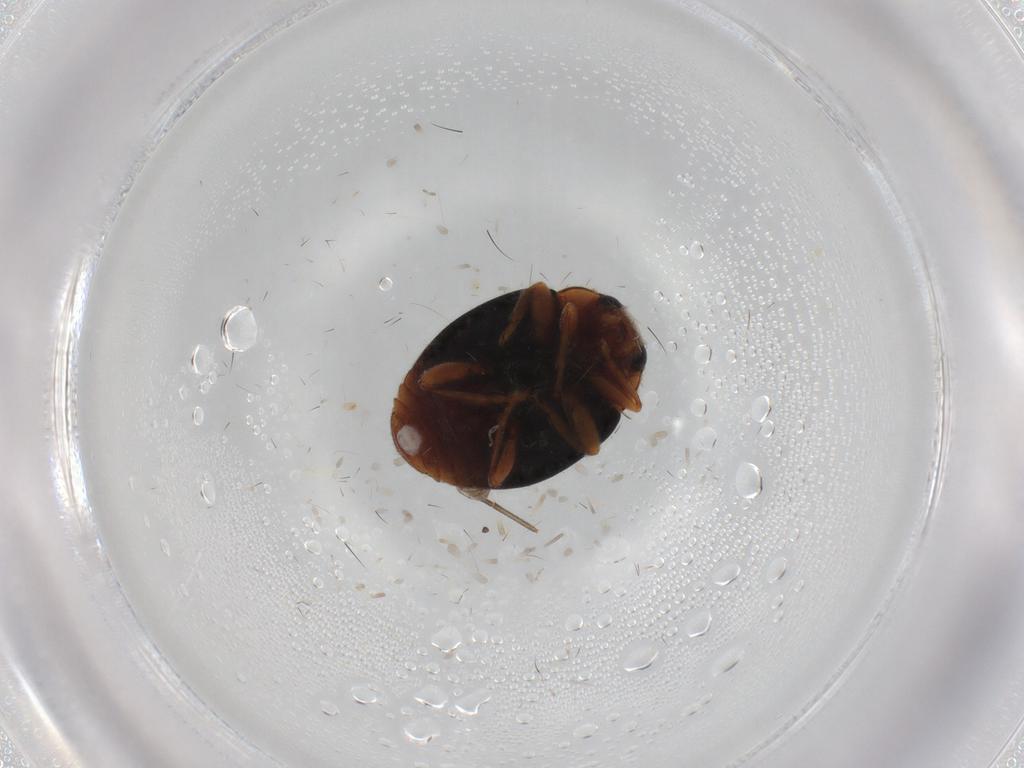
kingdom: Animalia
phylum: Arthropoda
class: Insecta
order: Coleoptera
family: Coccinellidae
